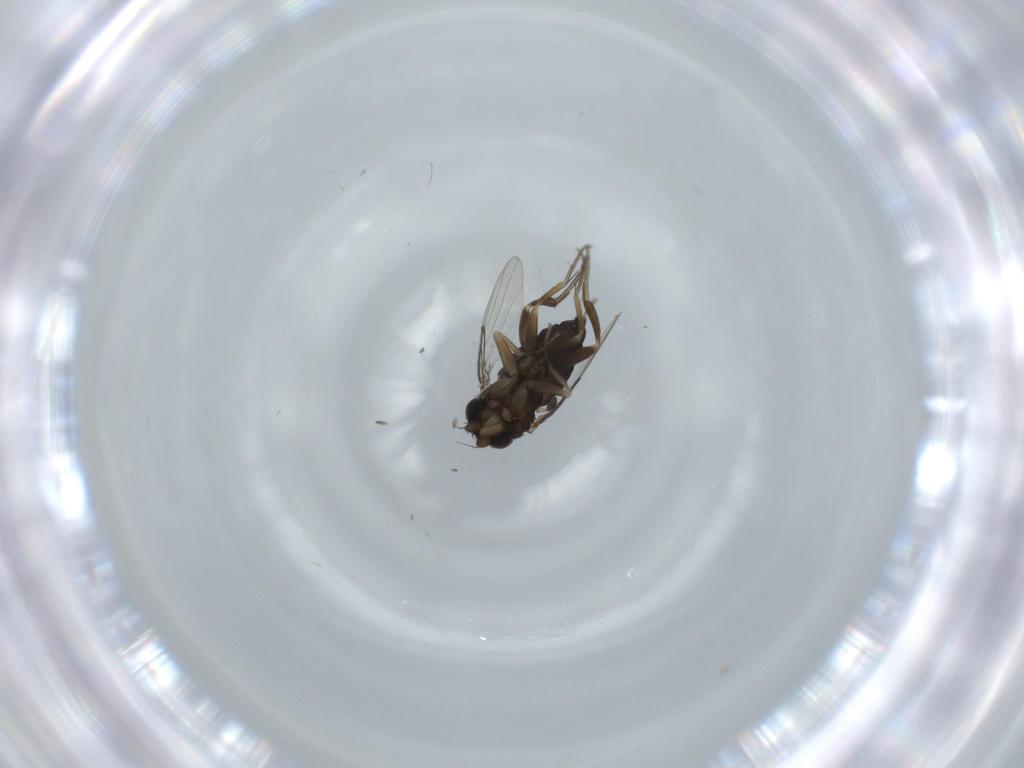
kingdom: Animalia
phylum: Arthropoda
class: Insecta
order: Diptera
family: Phoridae
